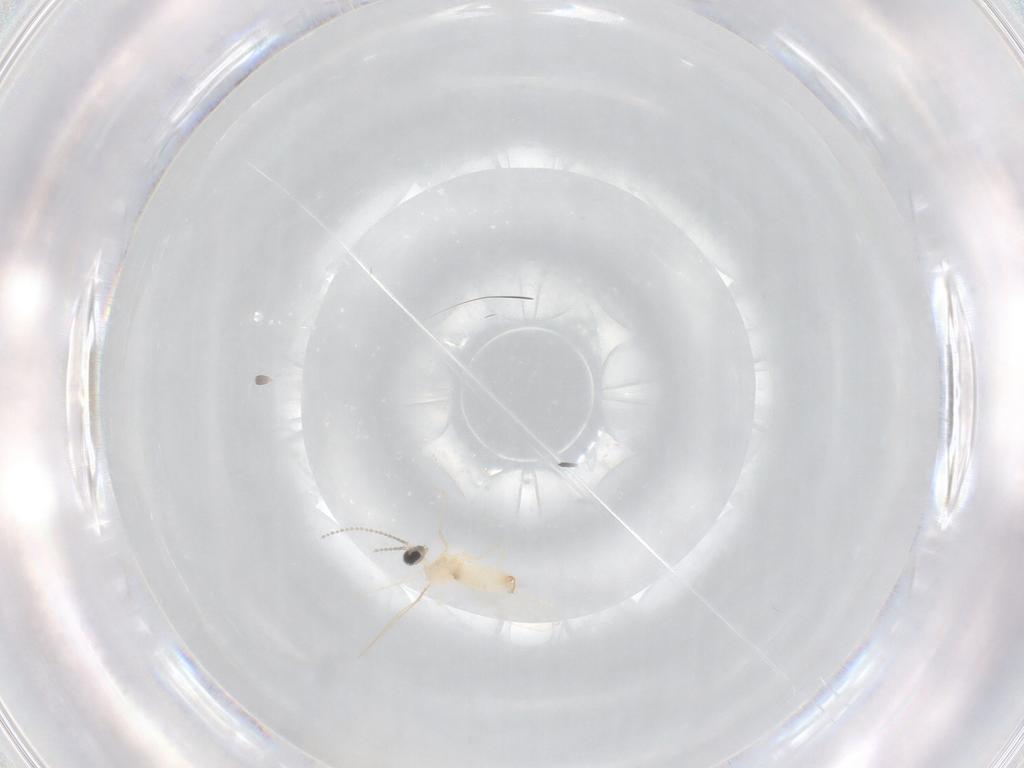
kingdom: Animalia
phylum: Arthropoda
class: Insecta
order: Diptera
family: Cecidomyiidae
